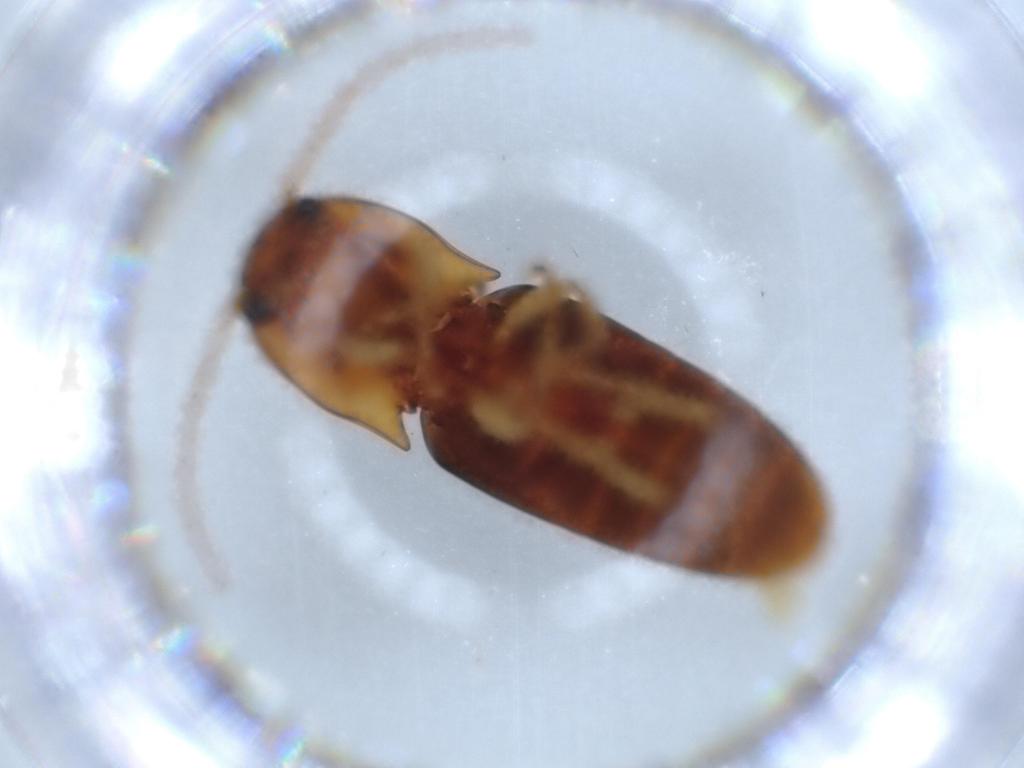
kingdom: Animalia
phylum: Arthropoda
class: Insecta
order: Coleoptera
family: Elateridae
